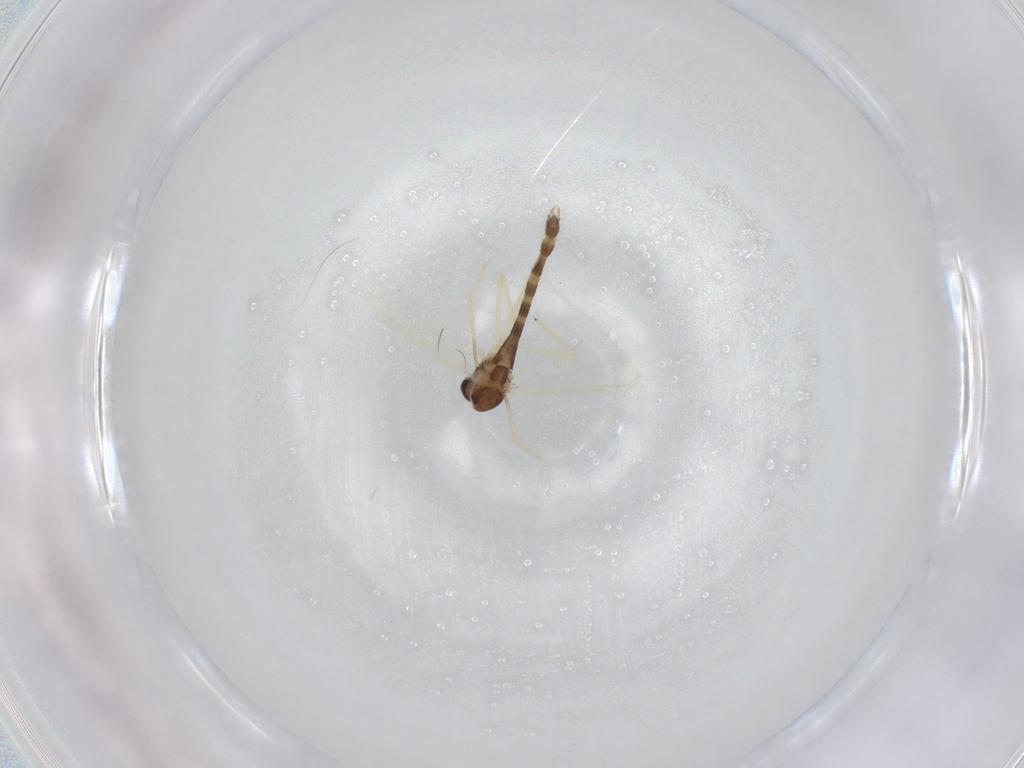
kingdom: Animalia
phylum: Arthropoda
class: Insecta
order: Diptera
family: Chironomidae
